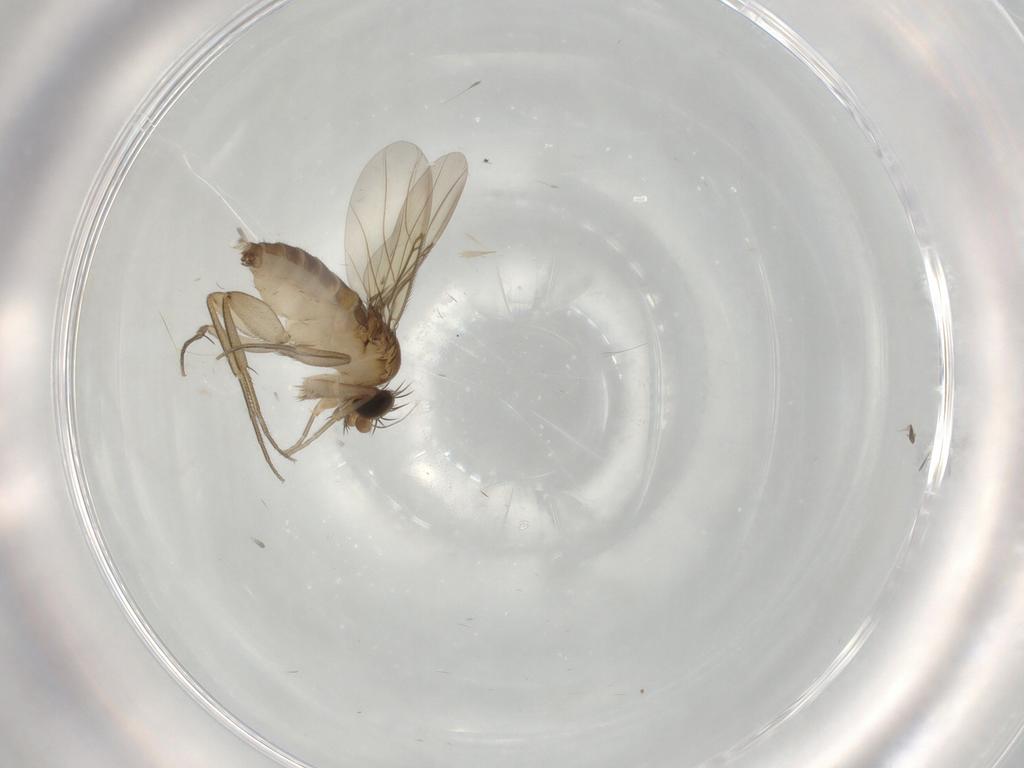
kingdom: Animalia
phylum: Arthropoda
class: Insecta
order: Diptera
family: Phoridae
